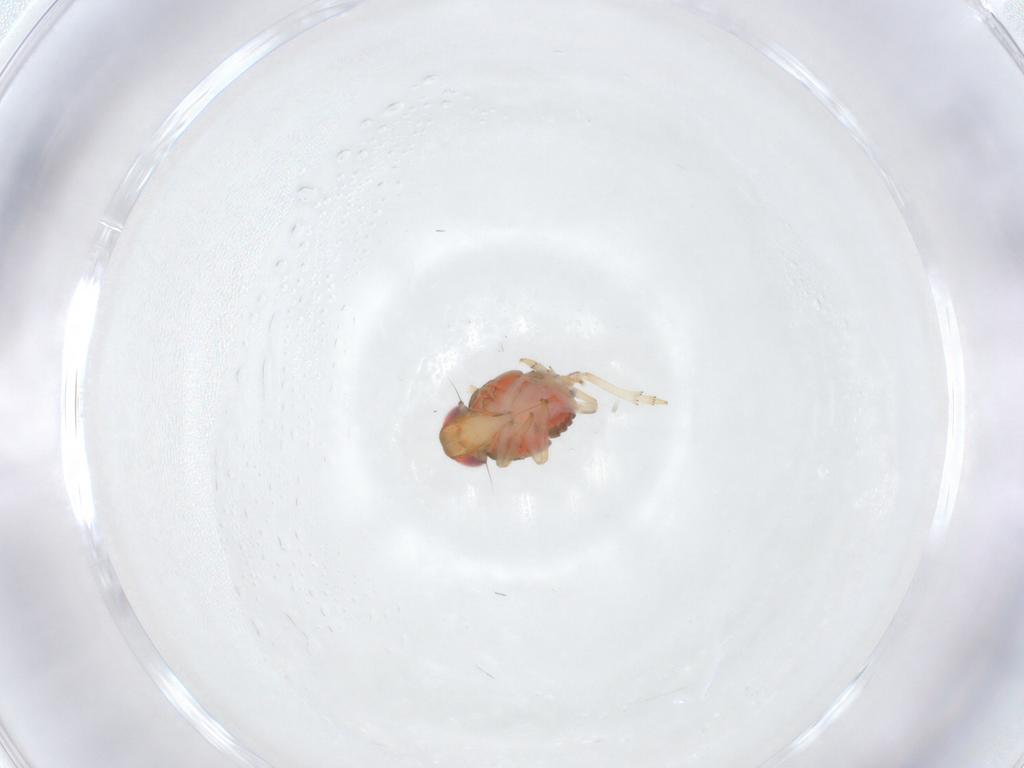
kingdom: Animalia
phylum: Arthropoda
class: Insecta
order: Hemiptera
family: Issidae
